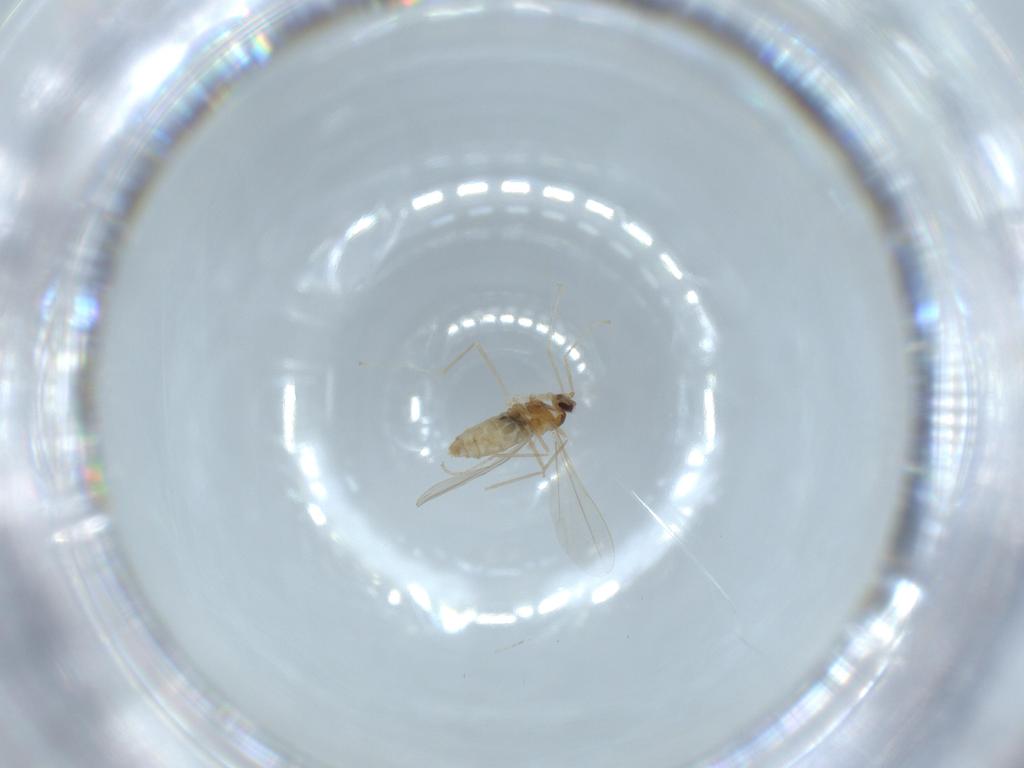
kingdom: Animalia
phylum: Arthropoda
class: Insecta
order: Diptera
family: Cecidomyiidae
